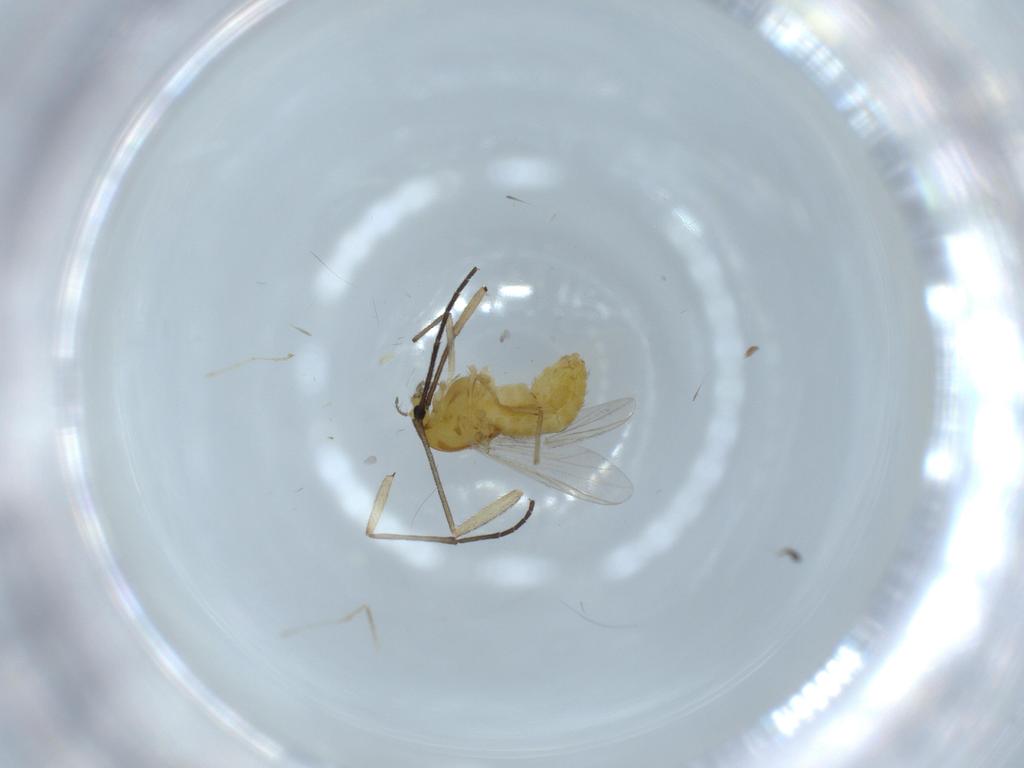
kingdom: Animalia
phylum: Arthropoda
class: Insecta
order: Diptera
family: Chironomidae
